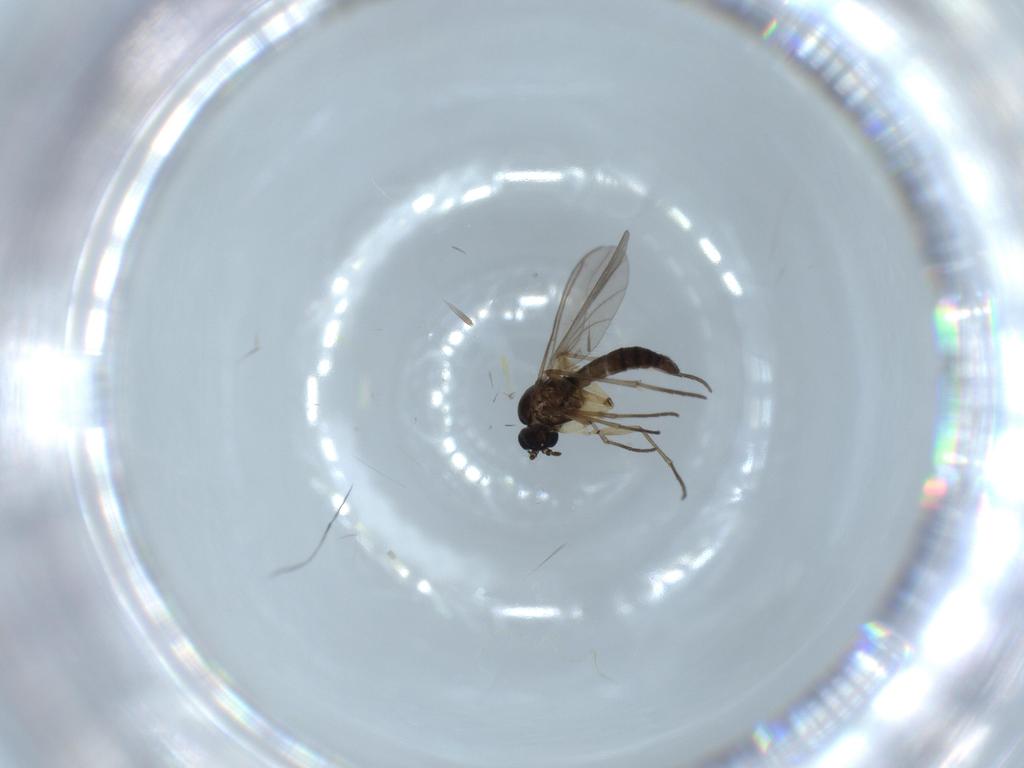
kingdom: Animalia
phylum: Arthropoda
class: Insecta
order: Diptera
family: Sciaridae
